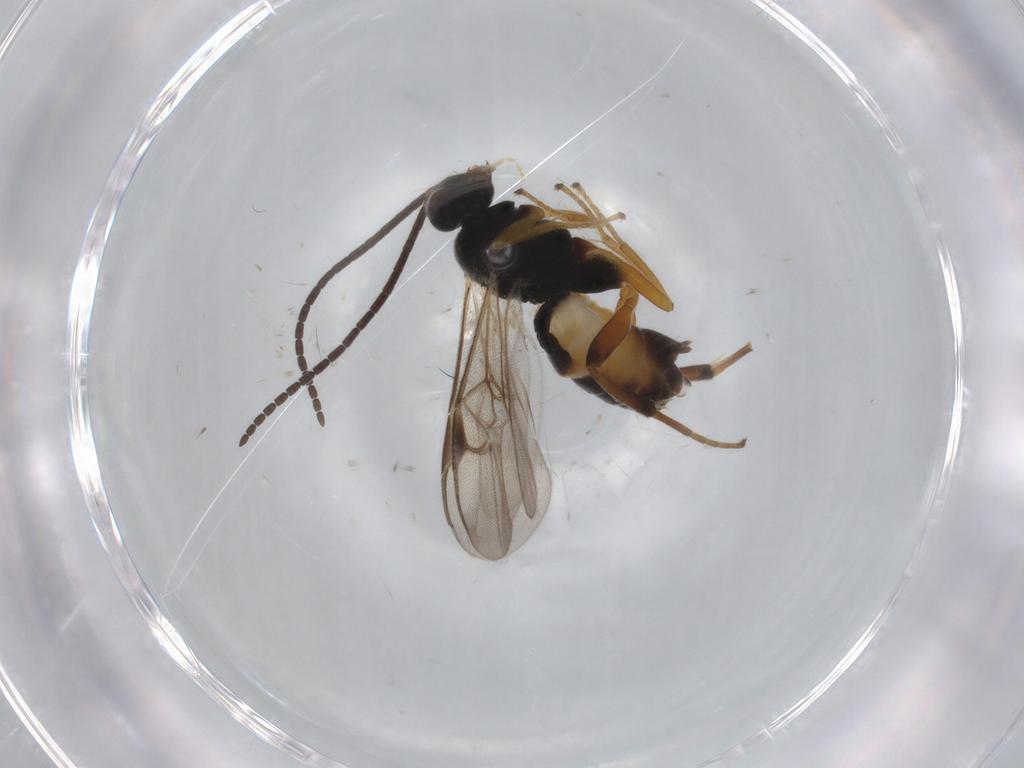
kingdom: Animalia
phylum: Arthropoda
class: Insecta
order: Hymenoptera
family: Braconidae
